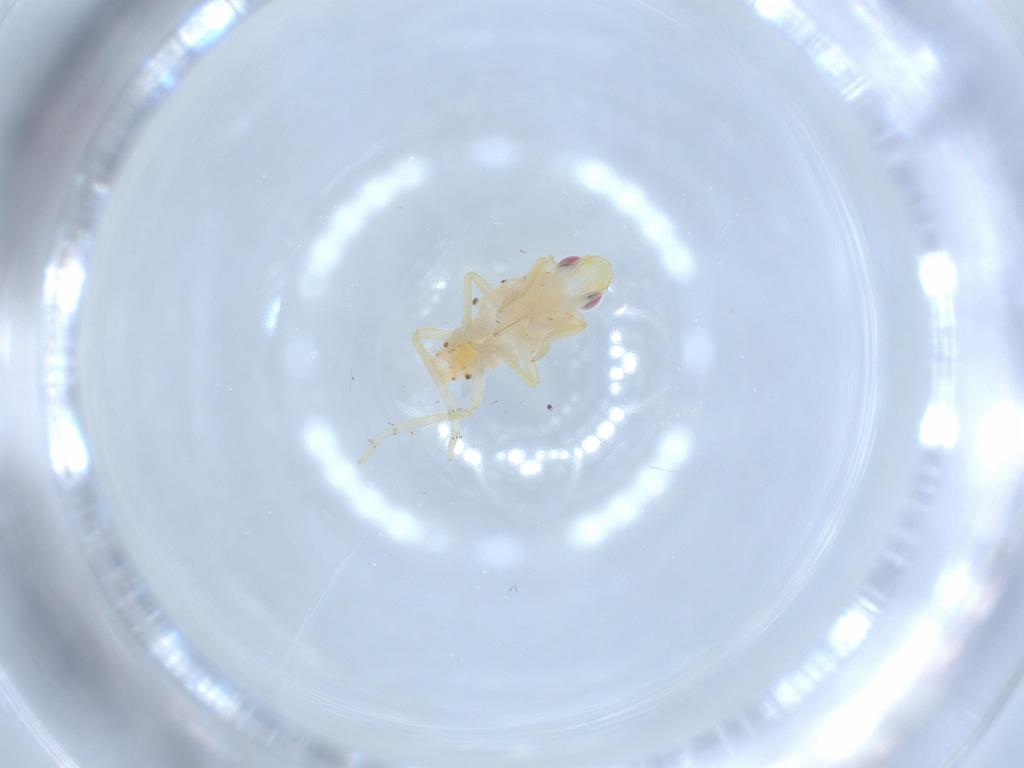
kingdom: Animalia
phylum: Arthropoda
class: Insecta
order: Hemiptera
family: Tropiduchidae
